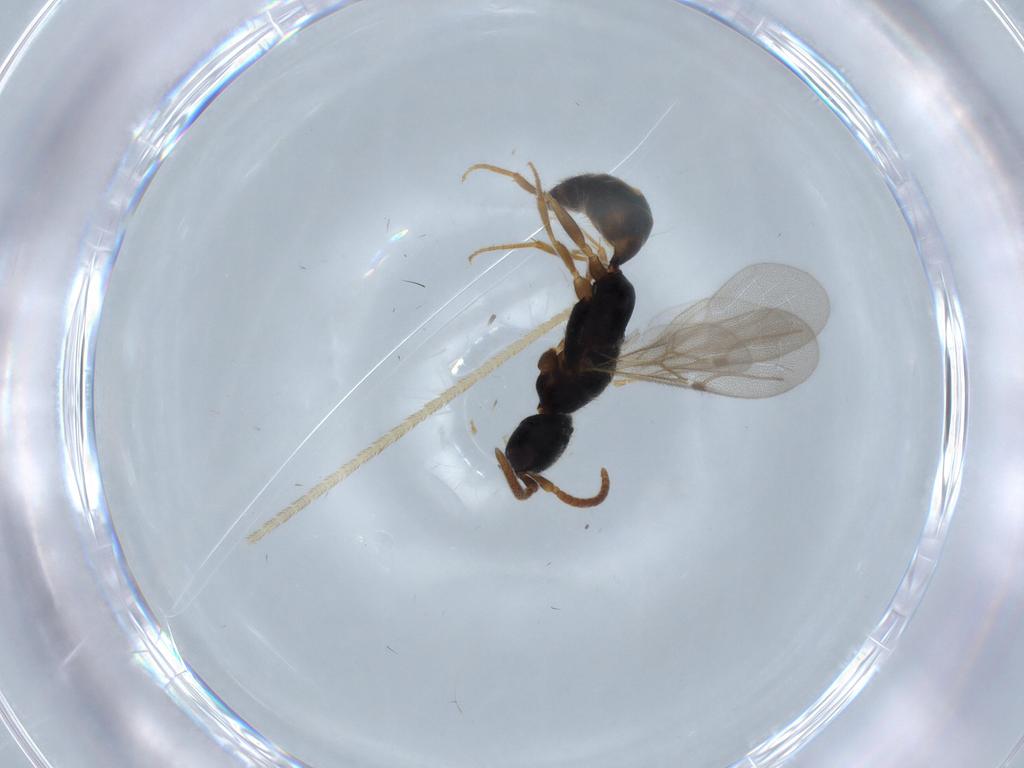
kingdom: Animalia
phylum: Arthropoda
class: Insecta
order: Hymenoptera
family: Bethylidae
